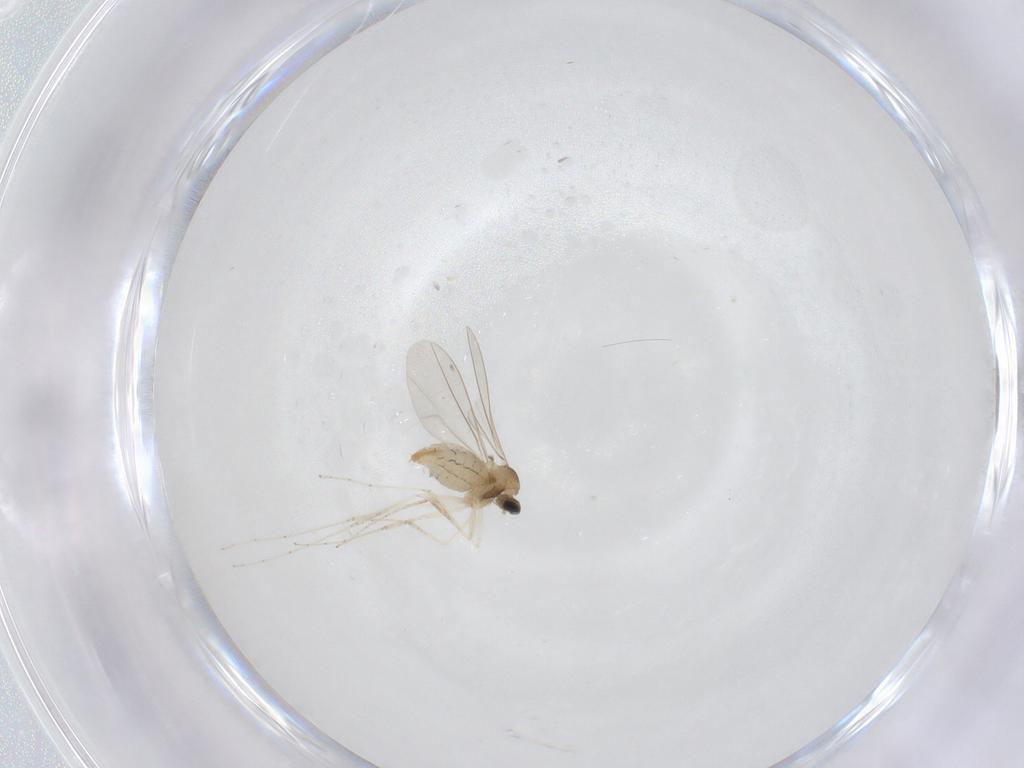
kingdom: Animalia
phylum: Arthropoda
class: Insecta
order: Diptera
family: Cecidomyiidae
